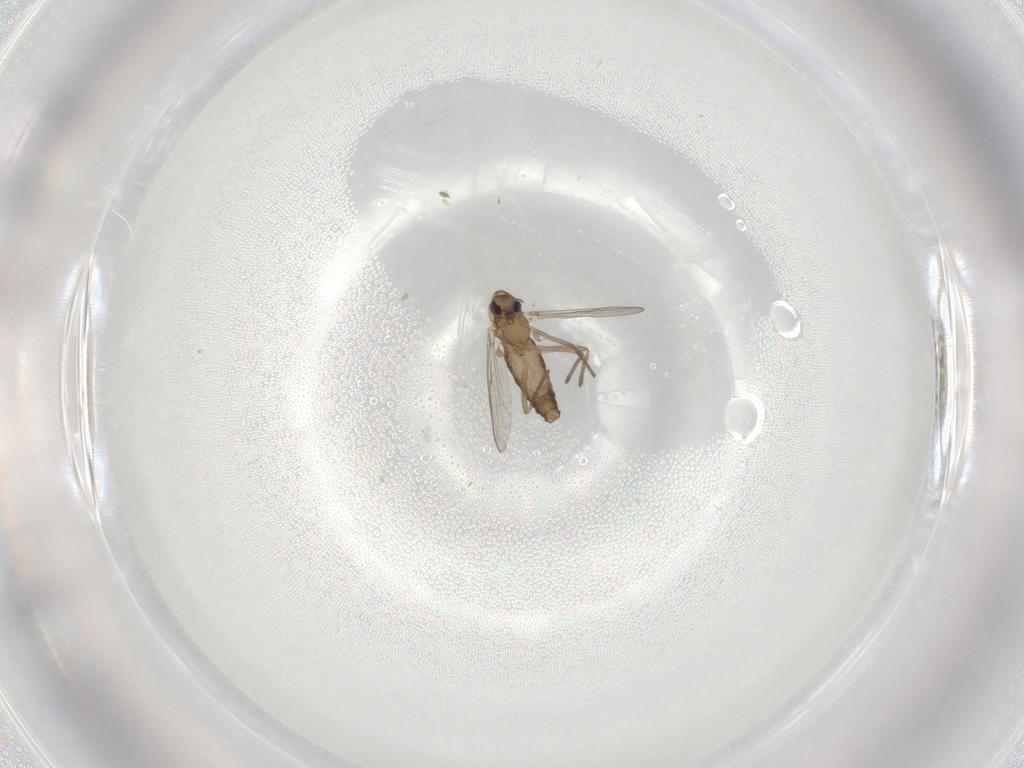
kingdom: Animalia
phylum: Arthropoda
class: Insecta
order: Diptera
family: Chironomidae
